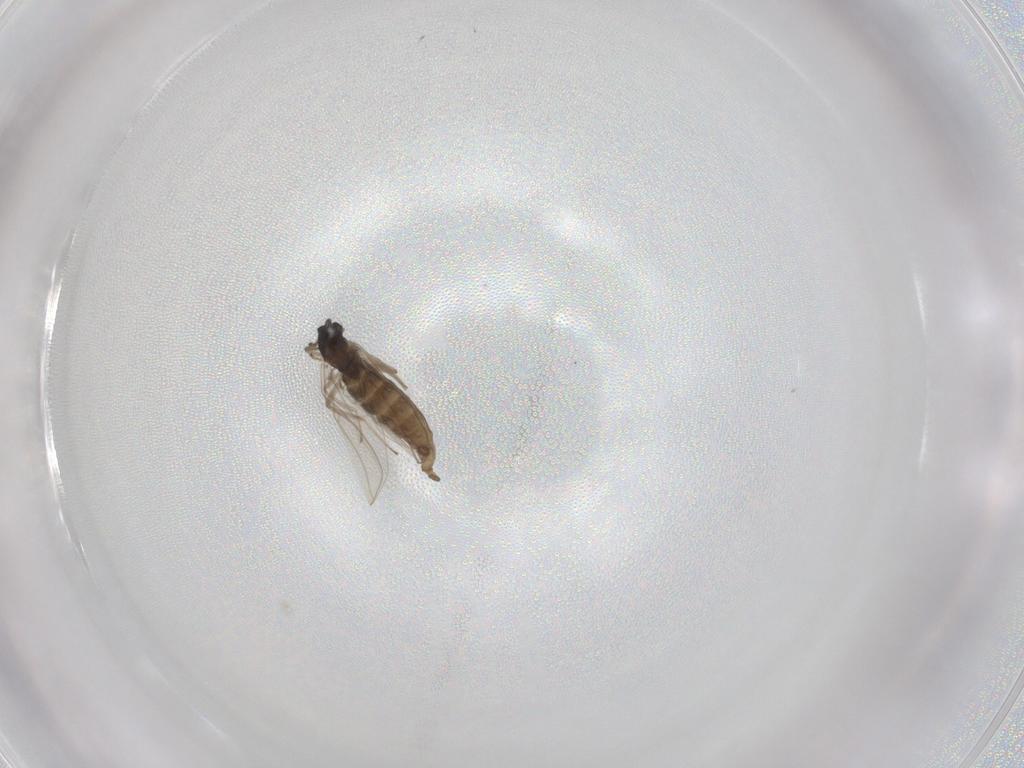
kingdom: Animalia
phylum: Arthropoda
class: Insecta
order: Diptera
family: Cecidomyiidae
